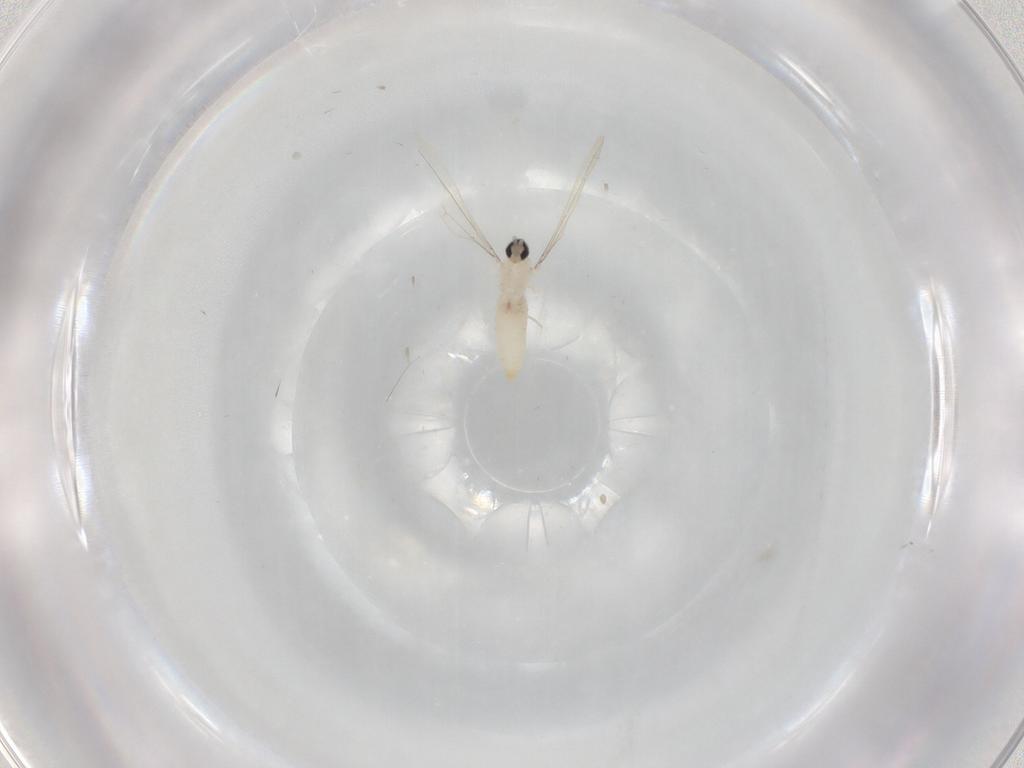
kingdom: Animalia
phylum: Arthropoda
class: Insecta
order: Diptera
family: Cecidomyiidae
